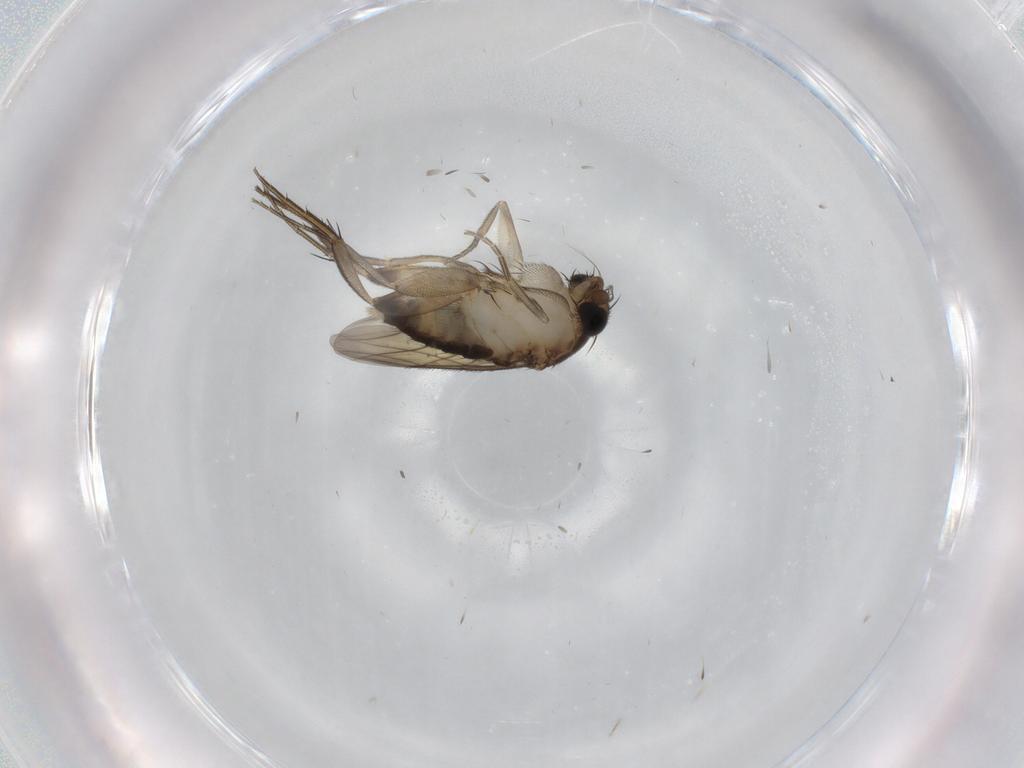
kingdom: Animalia
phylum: Arthropoda
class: Insecta
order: Diptera
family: Phoridae
